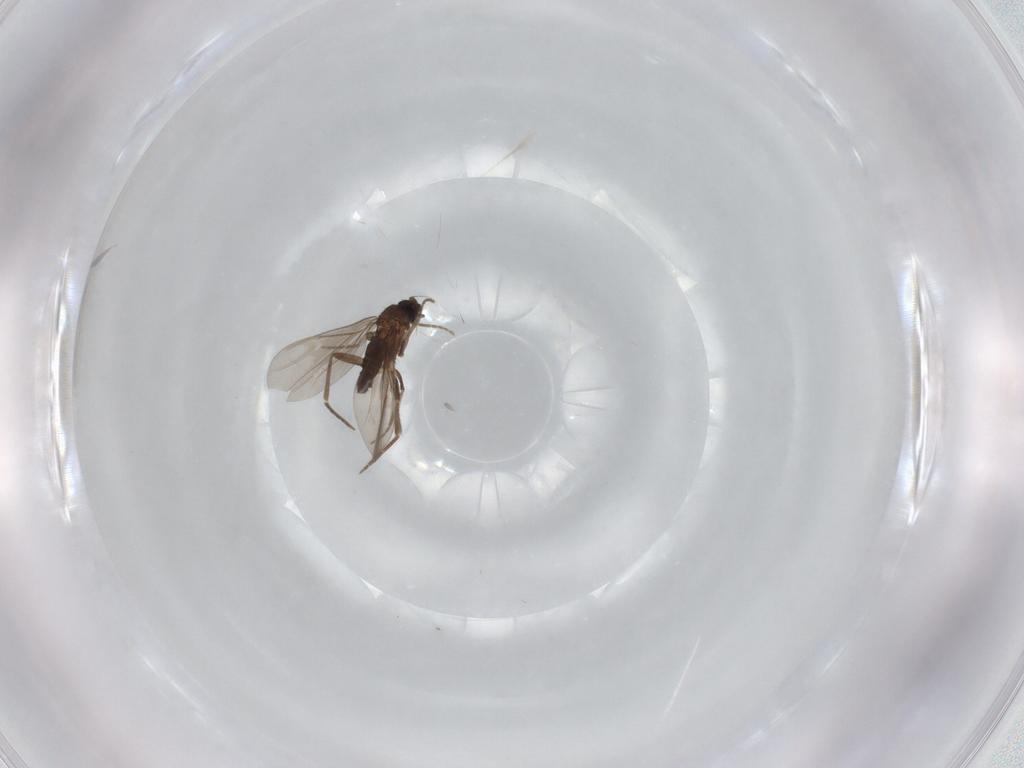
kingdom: Animalia
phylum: Arthropoda
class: Insecta
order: Diptera
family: Phoridae
